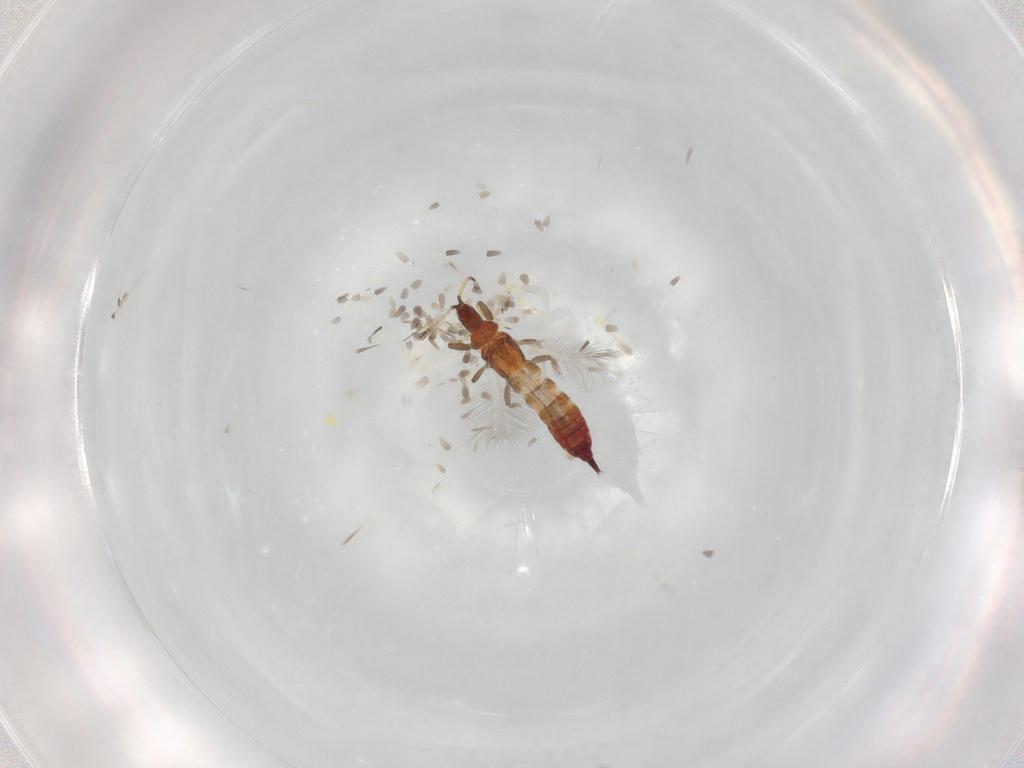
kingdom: Animalia
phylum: Arthropoda
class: Insecta
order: Thysanoptera
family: Phlaeothripidae
